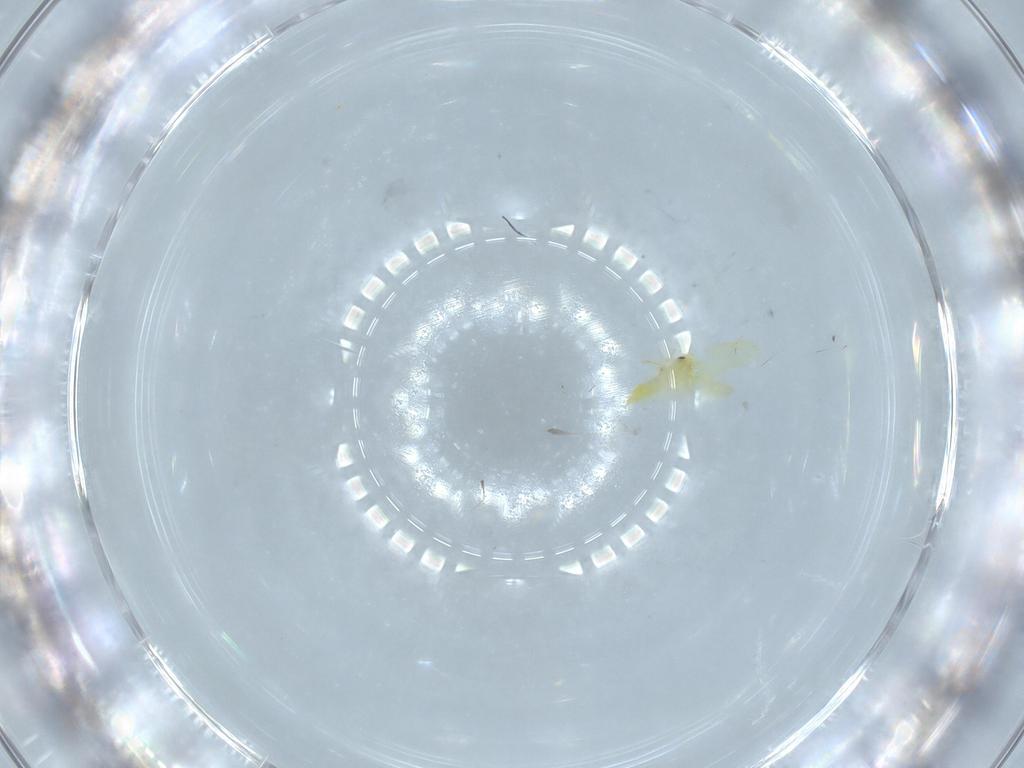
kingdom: Animalia
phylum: Arthropoda
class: Insecta
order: Hemiptera
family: Aleyrodidae
